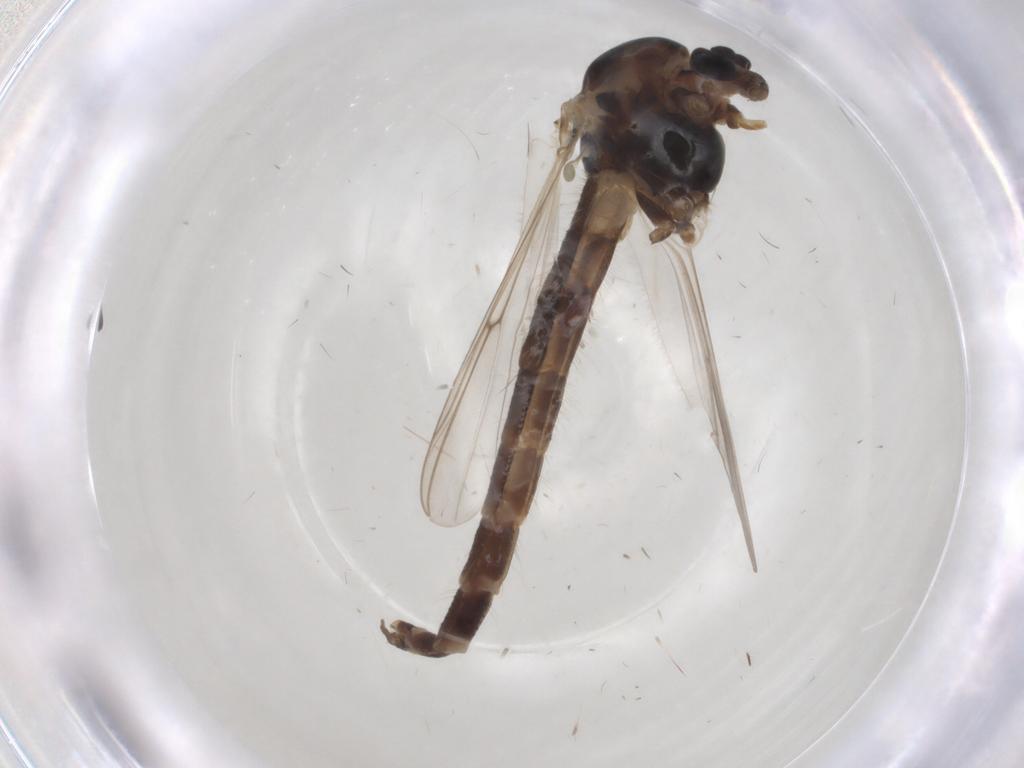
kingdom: Animalia
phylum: Arthropoda
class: Insecta
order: Diptera
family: Chironomidae
